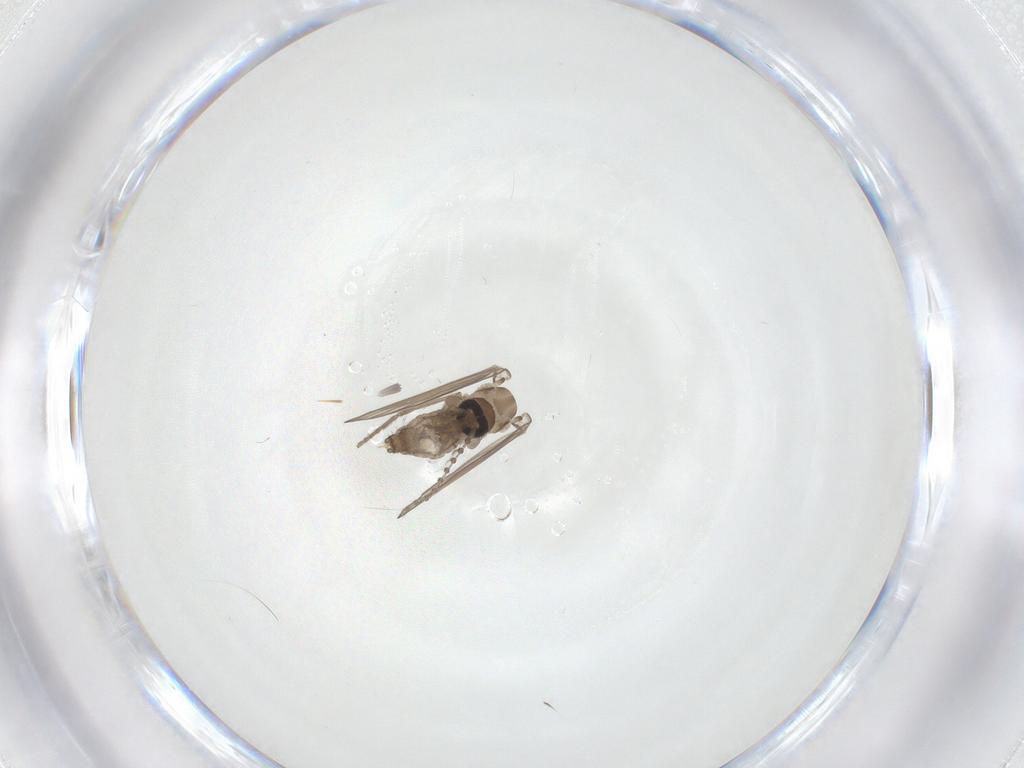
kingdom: Animalia
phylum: Arthropoda
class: Insecta
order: Diptera
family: Psychodidae
